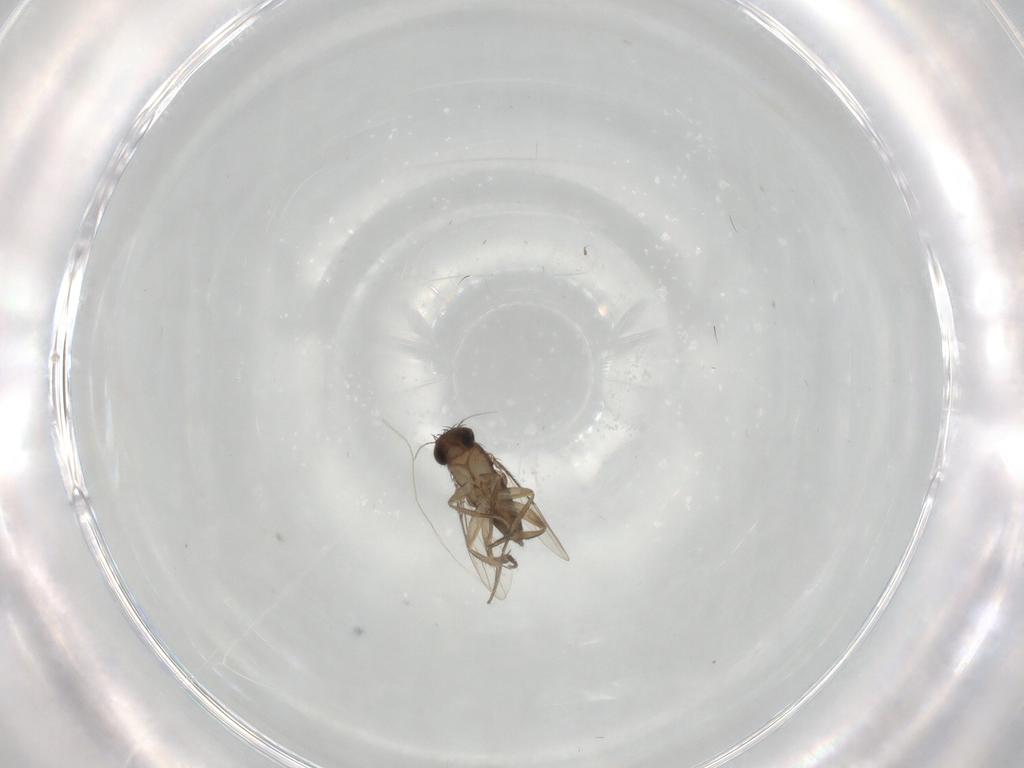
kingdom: Animalia
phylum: Arthropoda
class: Insecta
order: Diptera
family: Phoridae
